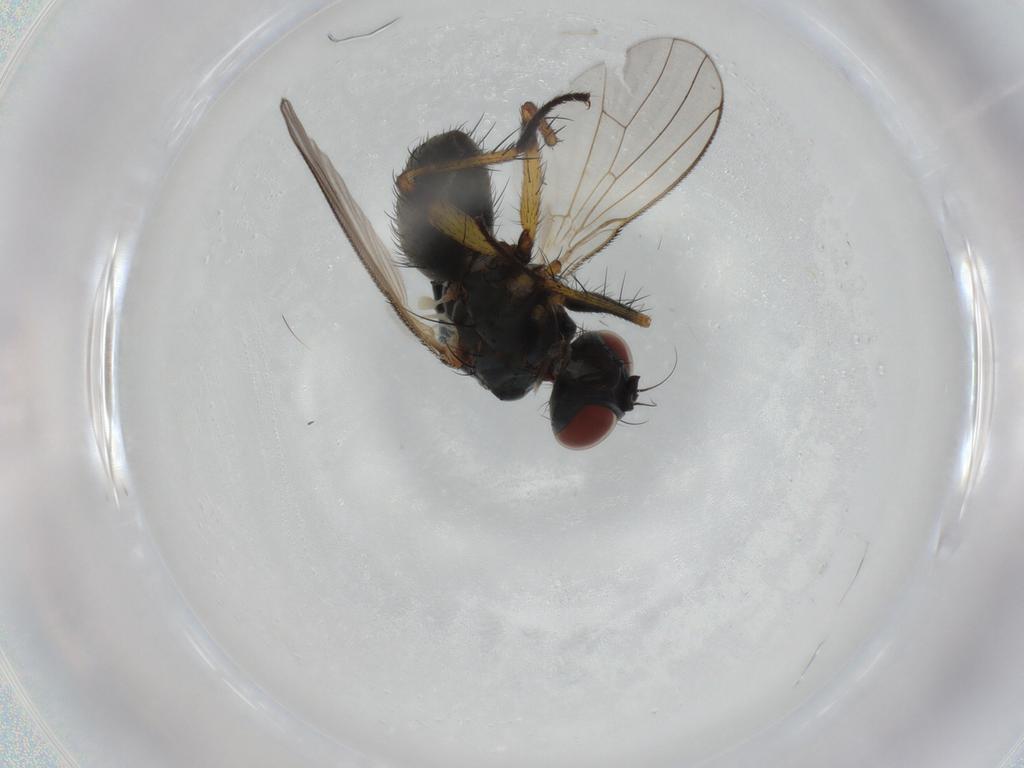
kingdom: Animalia
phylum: Arthropoda
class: Insecta
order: Diptera
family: Muscidae
